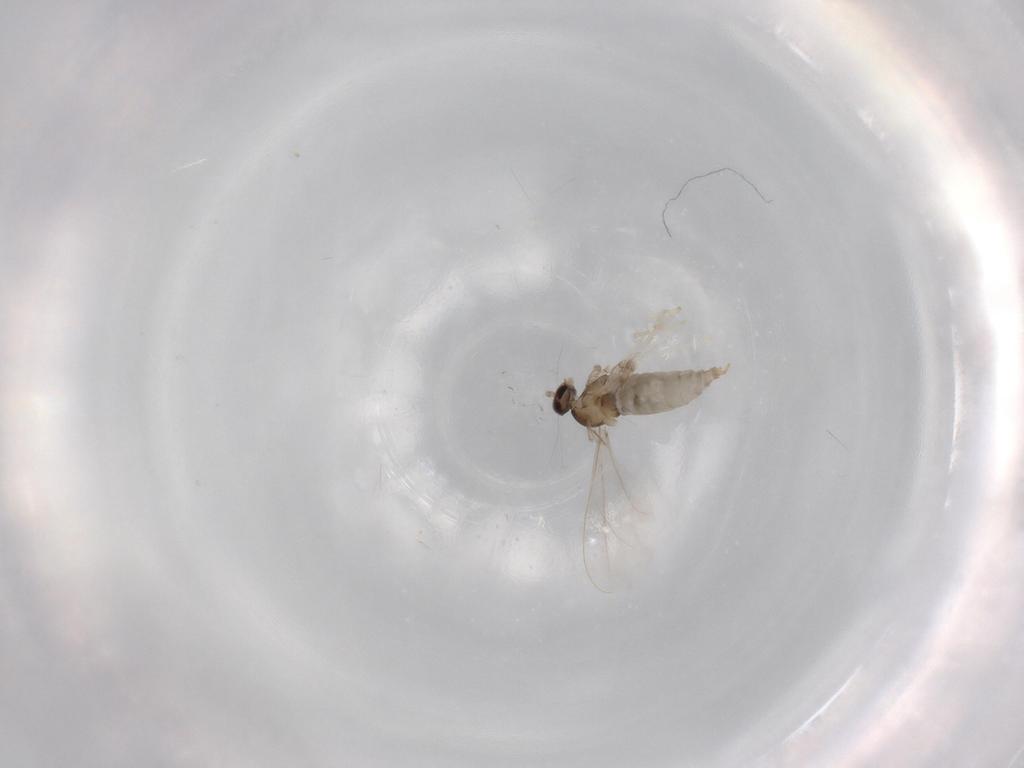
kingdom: Animalia
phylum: Arthropoda
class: Insecta
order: Diptera
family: Cecidomyiidae
